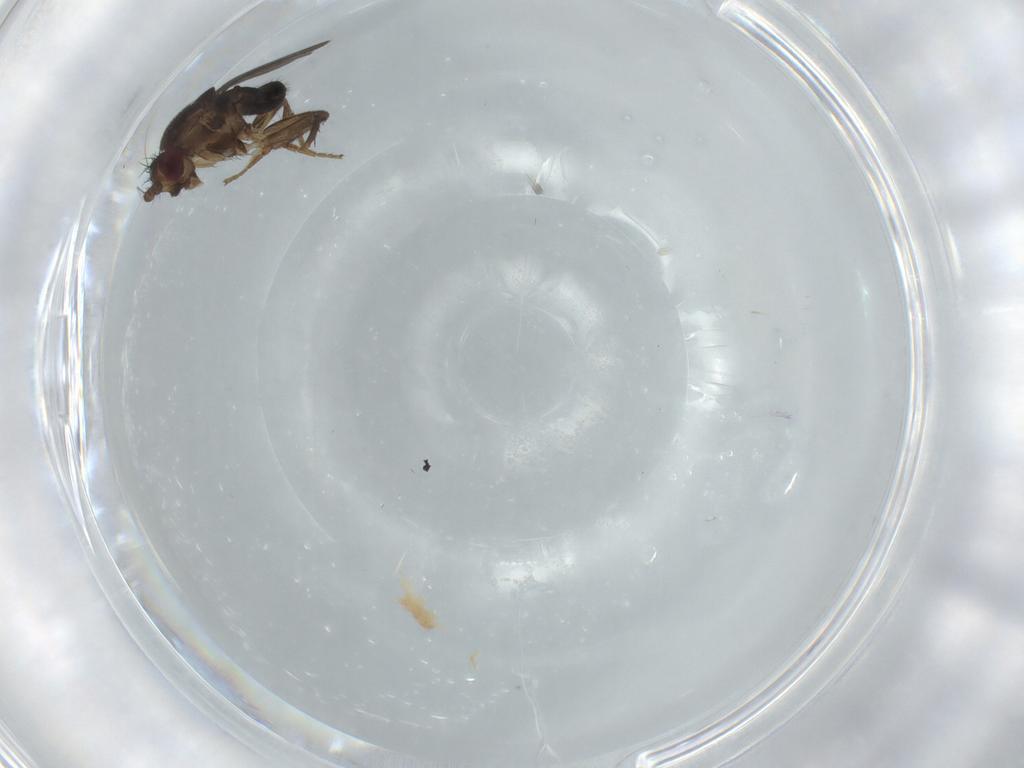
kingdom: Animalia
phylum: Arthropoda
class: Insecta
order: Diptera
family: Sphaeroceridae
